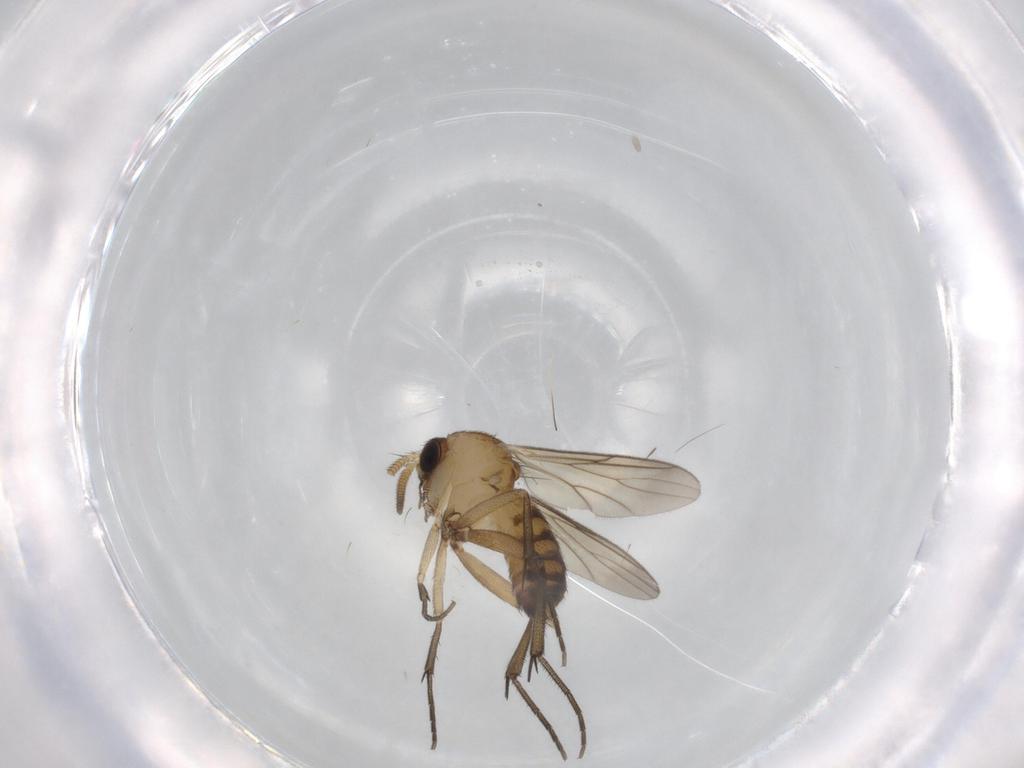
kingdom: Animalia
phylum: Arthropoda
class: Insecta
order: Diptera
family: Mycetophilidae
